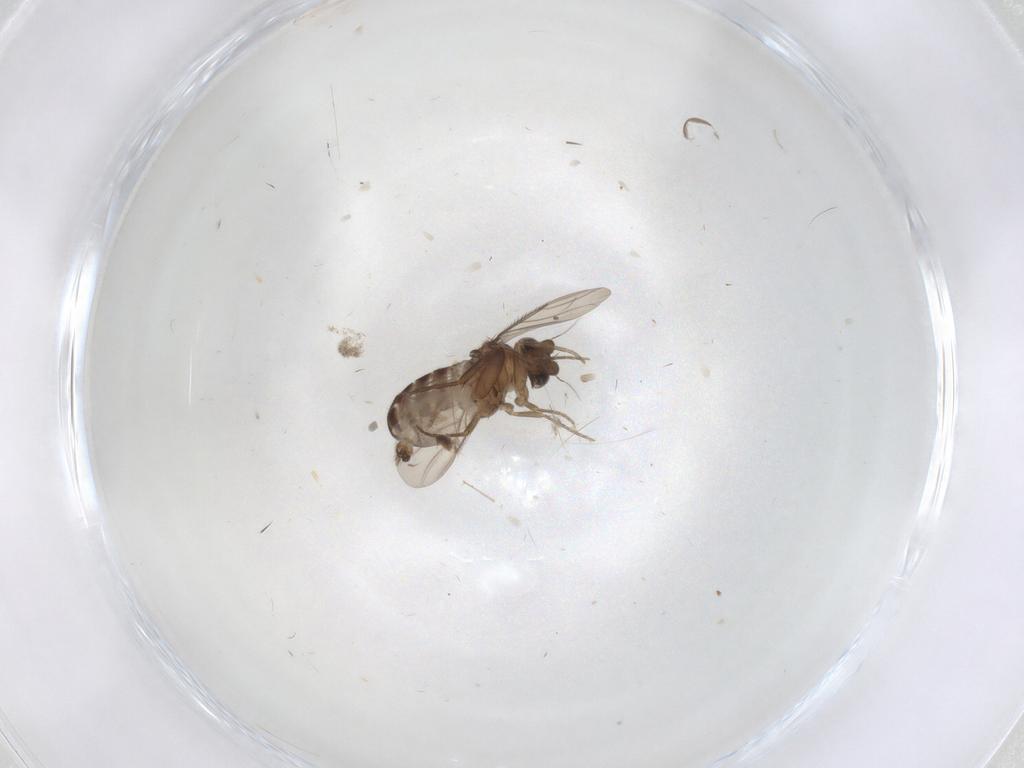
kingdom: Animalia
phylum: Arthropoda
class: Insecta
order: Diptera
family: Phoridae
